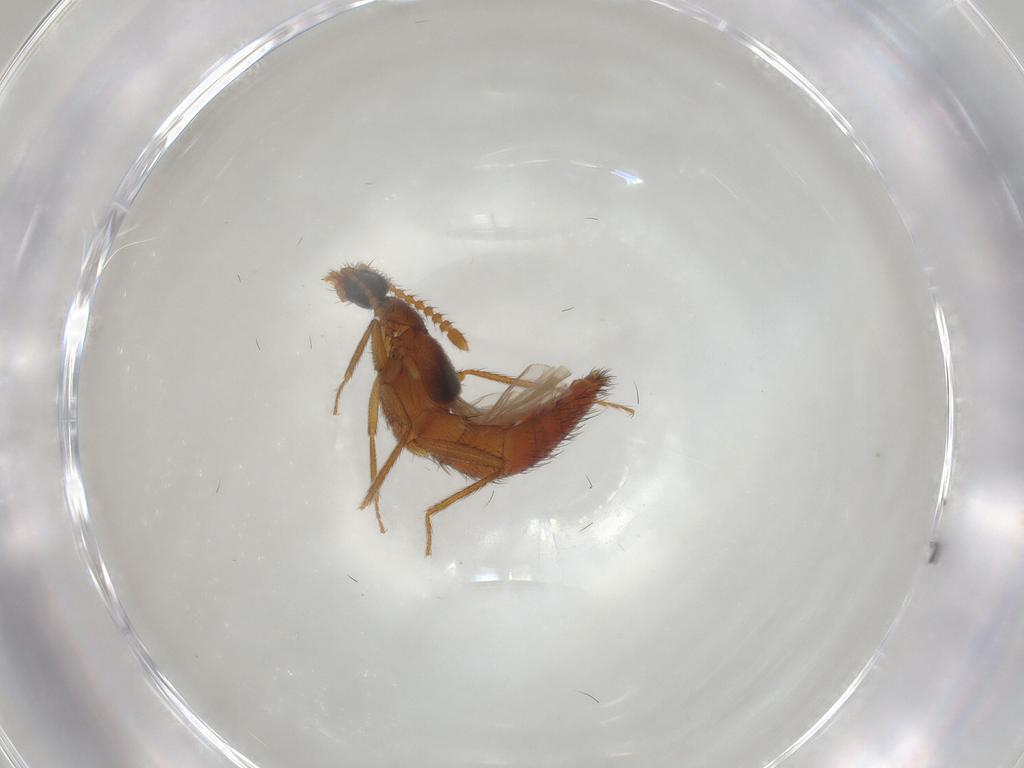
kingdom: Animalia
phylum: Arthropoda
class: Insecta
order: Coleoptera
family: Staphylinidae
